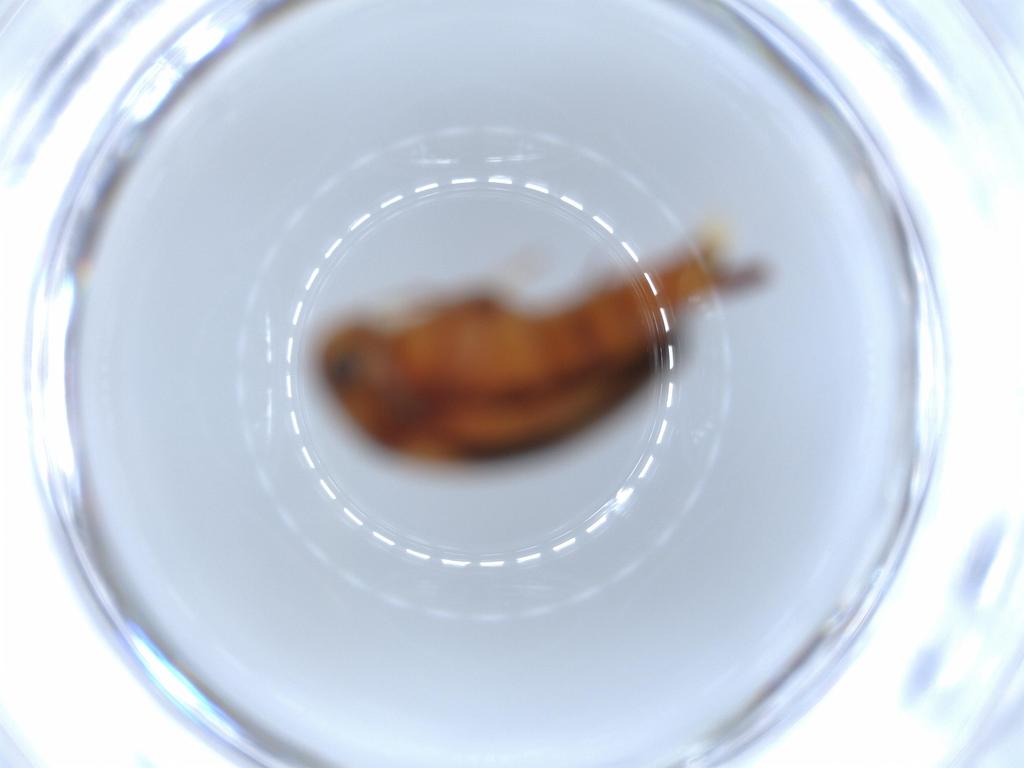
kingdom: Animalia
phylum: Arthropoda
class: Insecta
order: Coleoptera
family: Mordellidae
